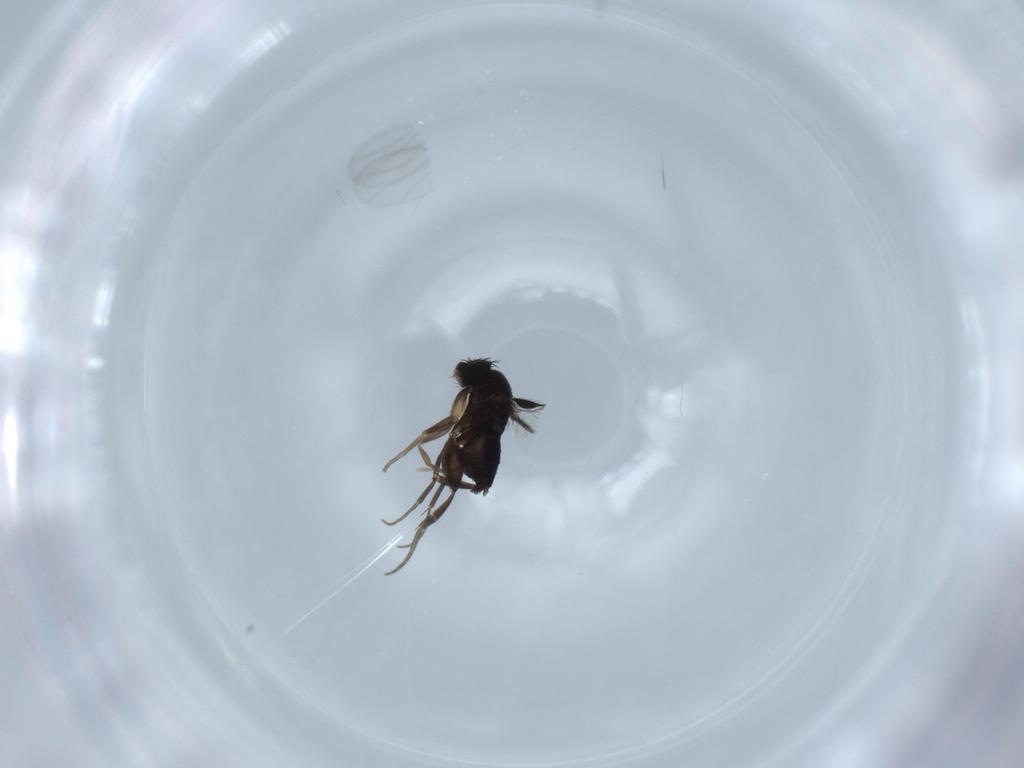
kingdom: Animalia
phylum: Arthropoda
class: Insecta
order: Diptera
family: Phoridae
